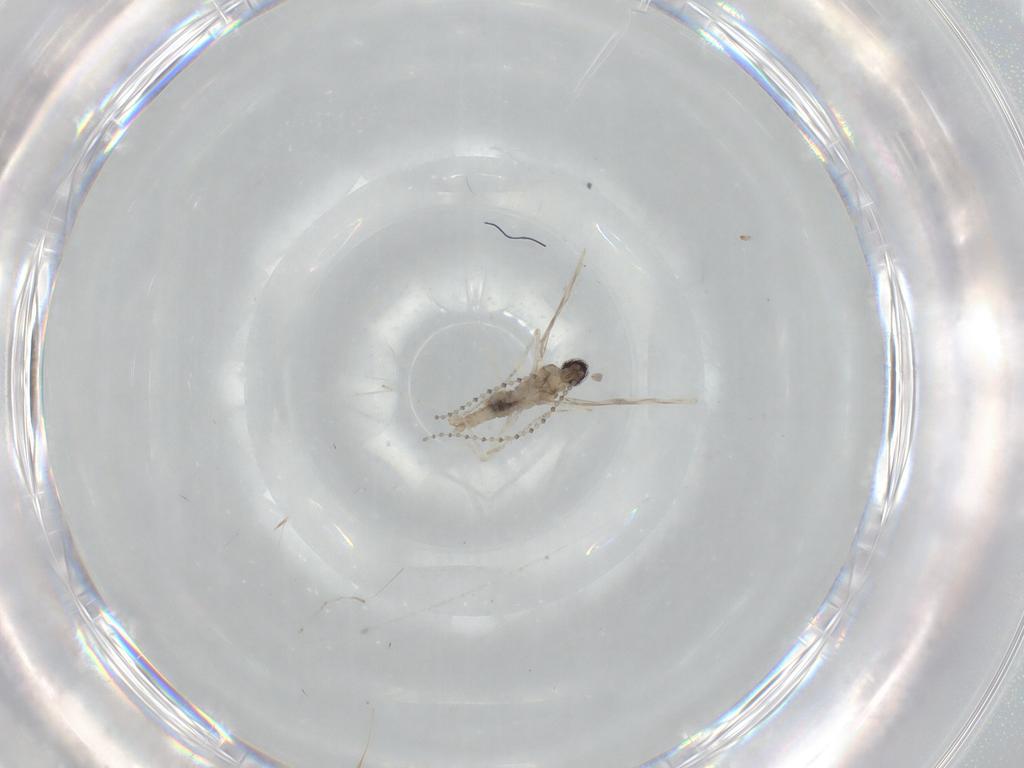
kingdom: Animalia
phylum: Arthropoda
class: Insecta
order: Diptera
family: Cecidomyiidae
